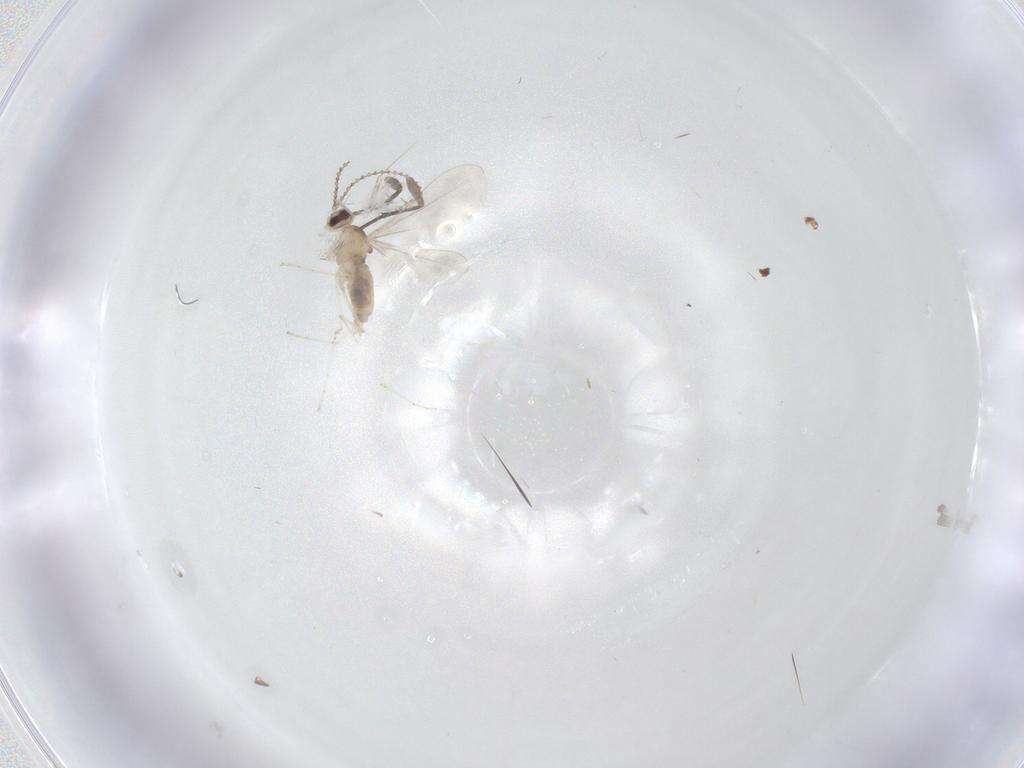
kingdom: Animalia
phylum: Arthropoda
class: Insecta
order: Diptera
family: Cecidomyiidae
